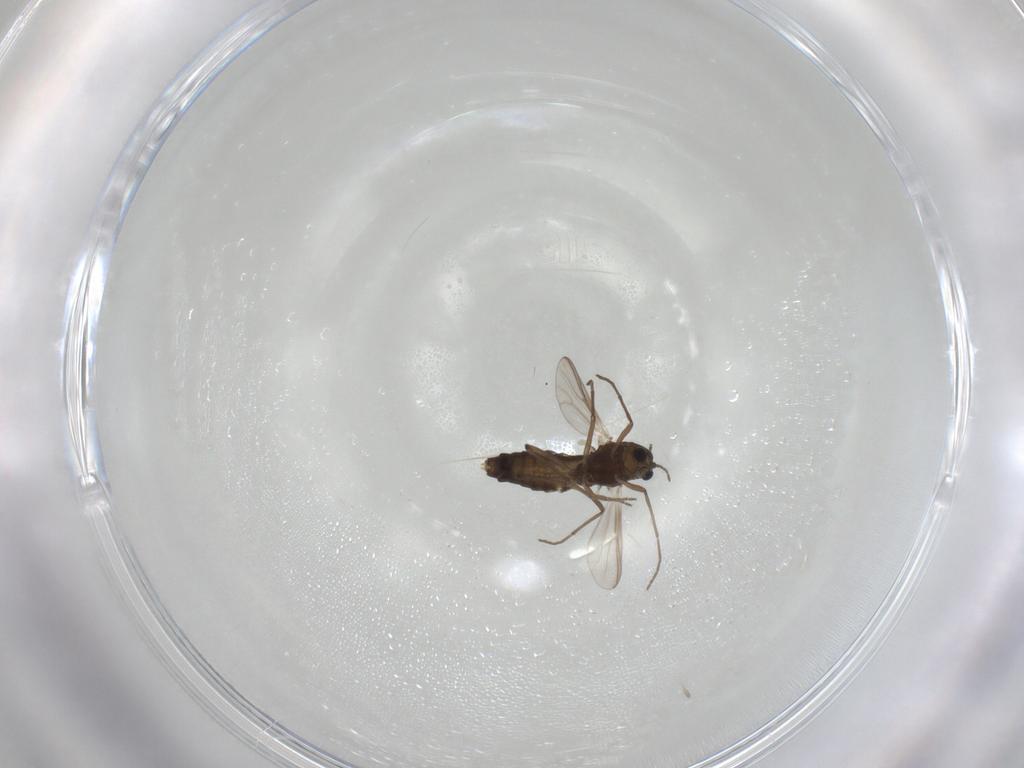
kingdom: Animalia
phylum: Arthropoda
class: Insecta
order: Diptera
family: Chironomidae
